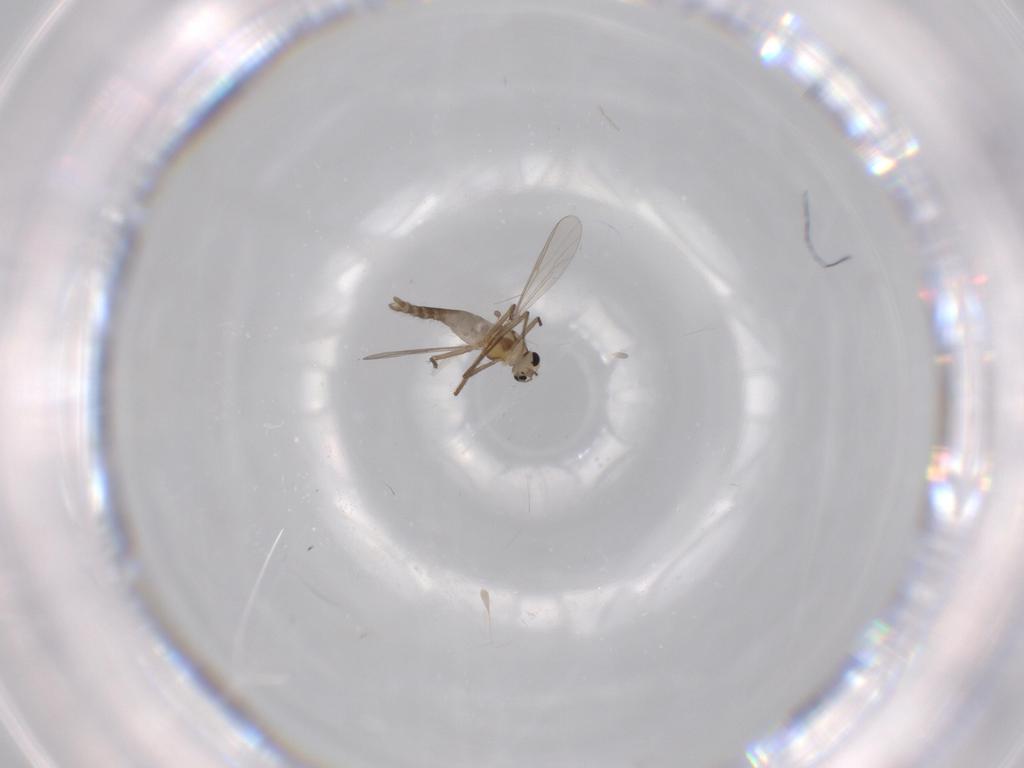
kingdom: Animalia
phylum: Arthropoda
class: Insecta
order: Diptera
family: Chironomidae
